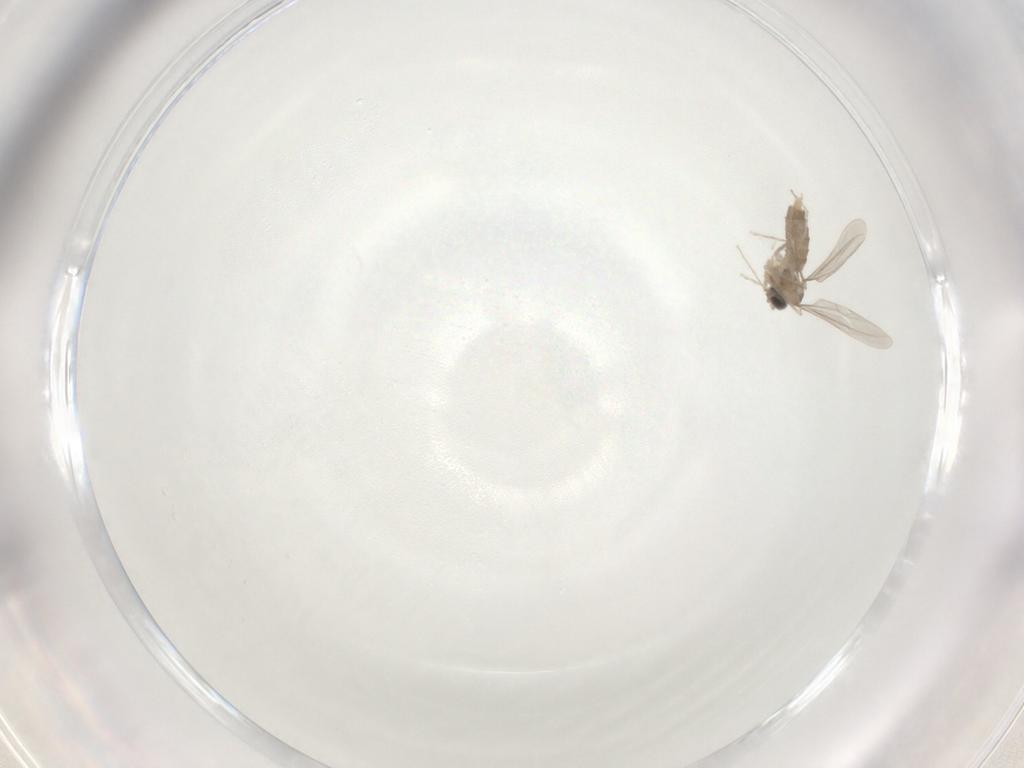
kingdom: Animalia
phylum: Arthropoda
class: Insecta
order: Diptera
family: Cecidomyiidae
